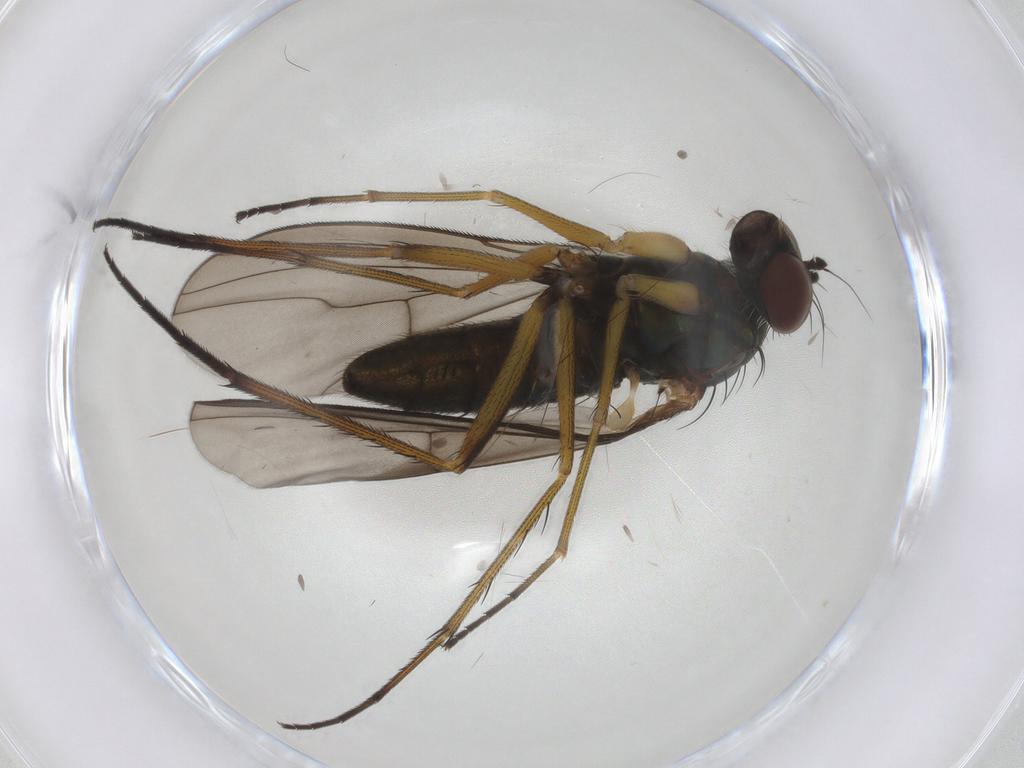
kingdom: Animalia
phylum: Arthropoda
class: Insecta
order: Diptera
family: Dolichopodidae
